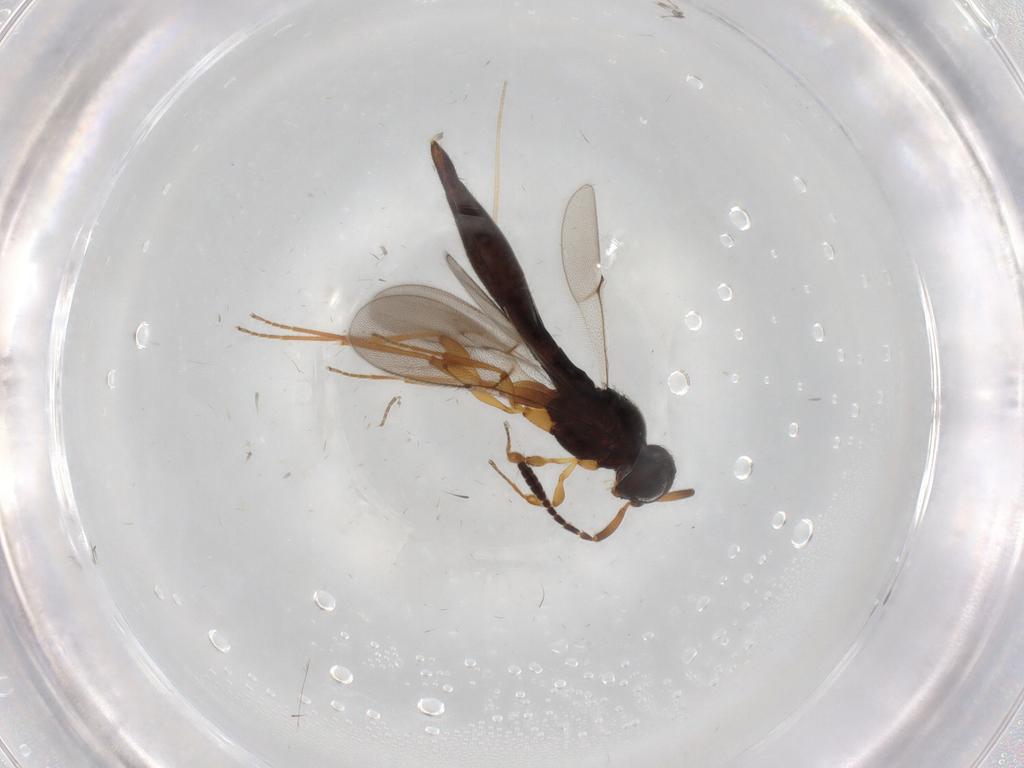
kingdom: Animalia
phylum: Arthropoda
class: Insecta
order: Hymenoptera
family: Scelionidae
